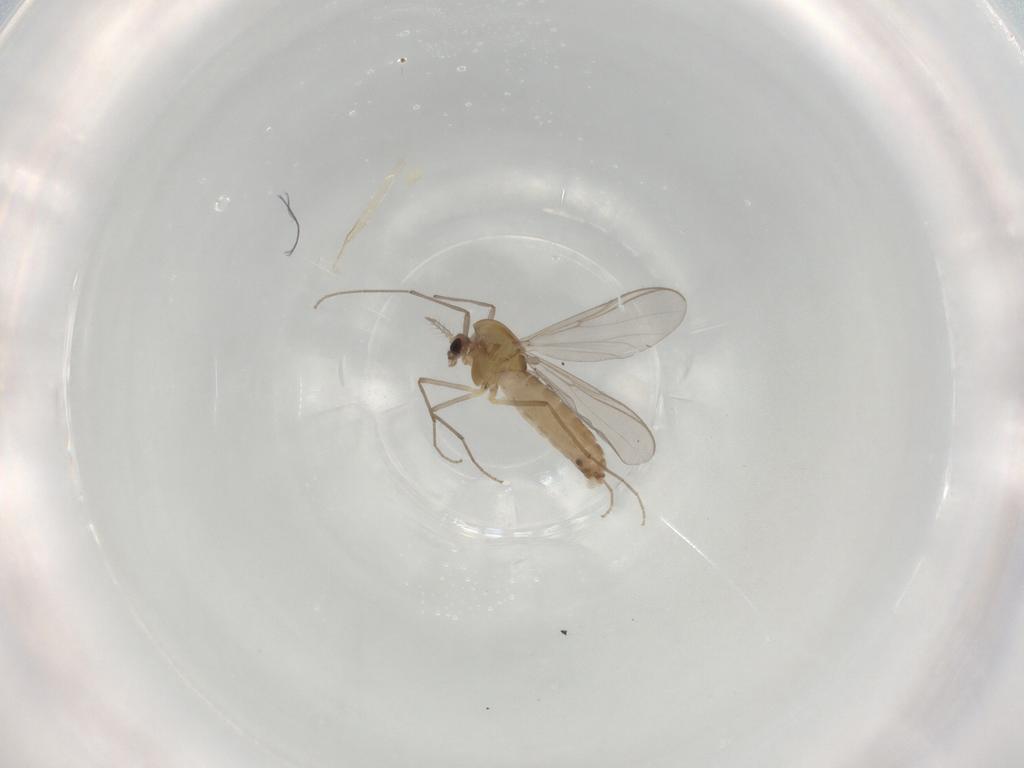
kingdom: Animalia
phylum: Arthropoda
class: Insecta
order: Diptera
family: Chironomidae
